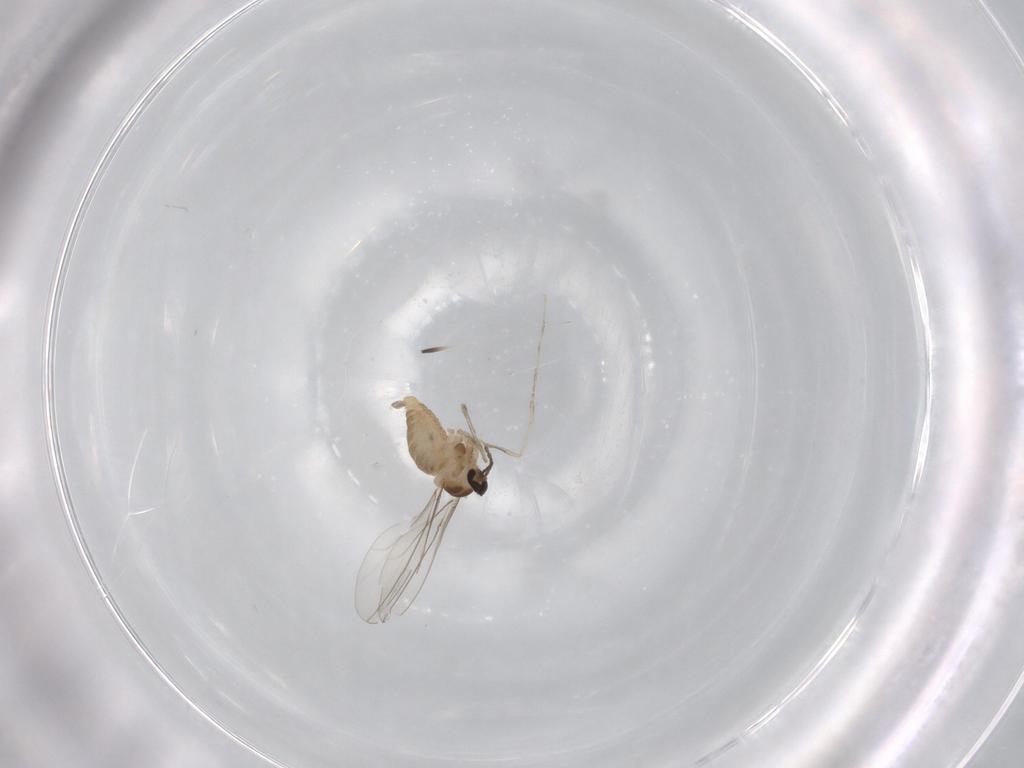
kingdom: Animalia
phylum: Arthropoda
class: Insecta
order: Diptera
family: Cecidomyiidae
